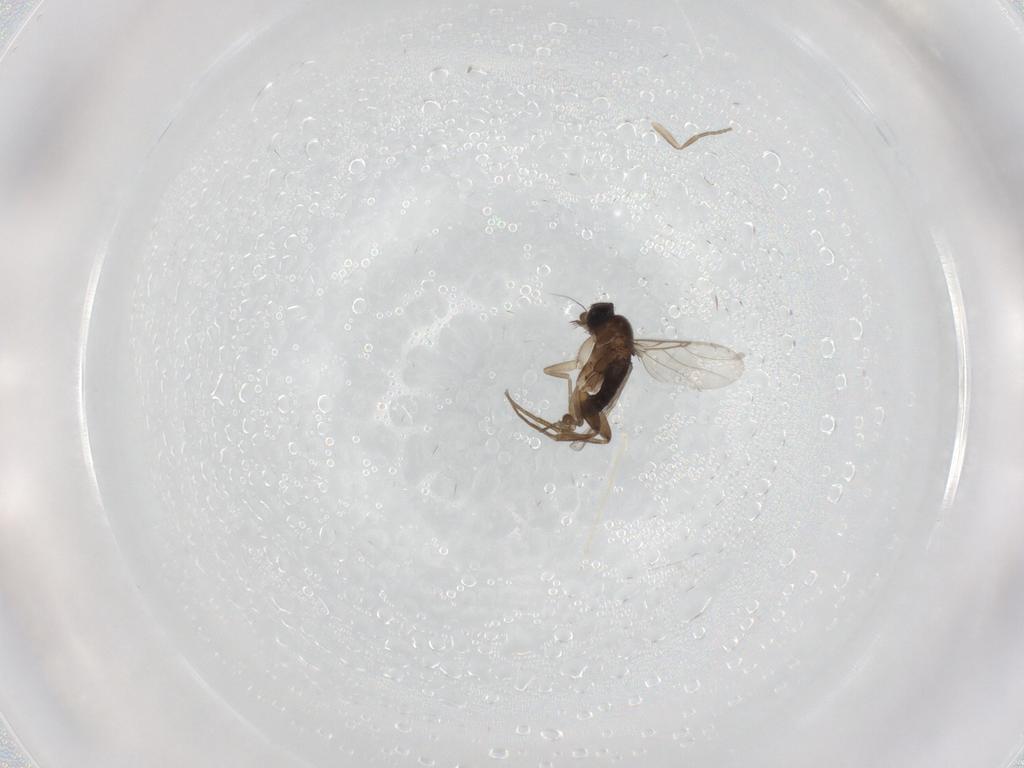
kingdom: Animalia
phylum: Arthropoda
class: Insecta
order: Diptera
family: Phoridae
